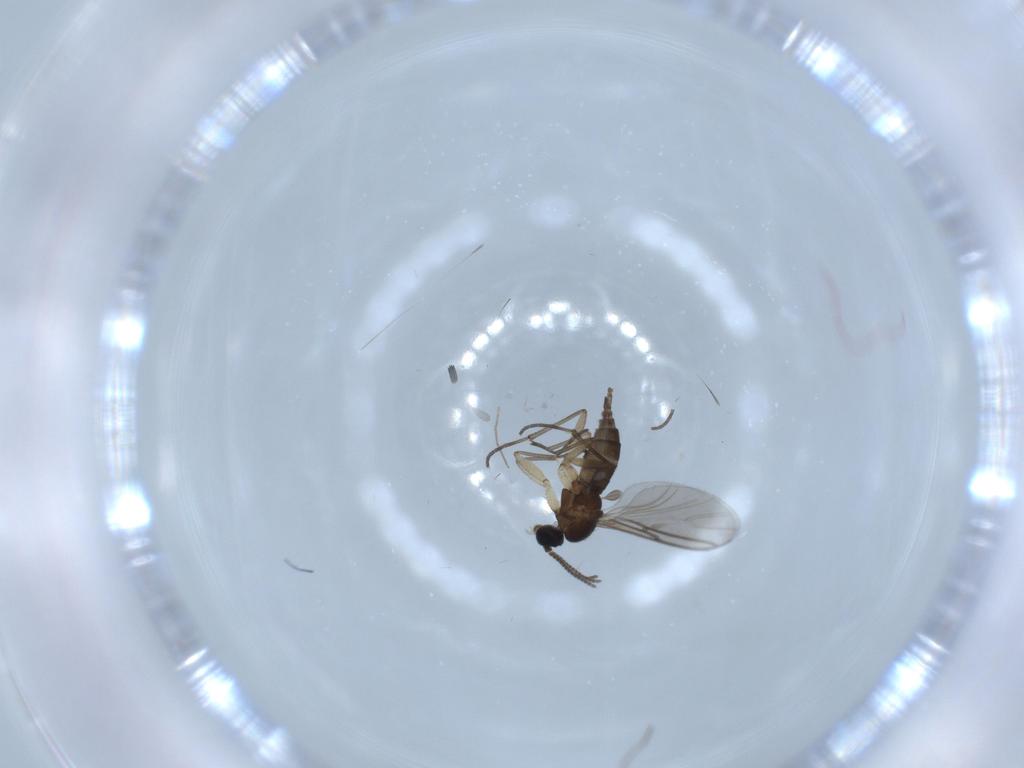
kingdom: Animalia
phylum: Arthropoda
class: Insecta
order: Diptera
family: Sciaridae
